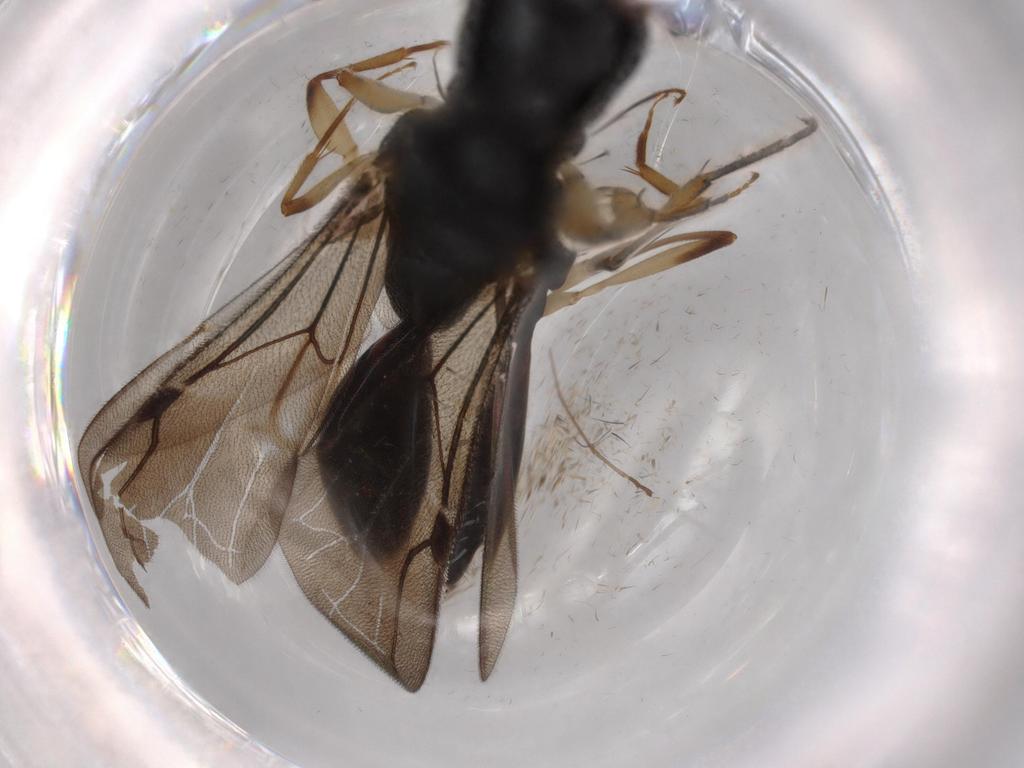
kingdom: Animalia
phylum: Arthropoda
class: Insecta
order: Hymenoptera
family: Bethylidae
